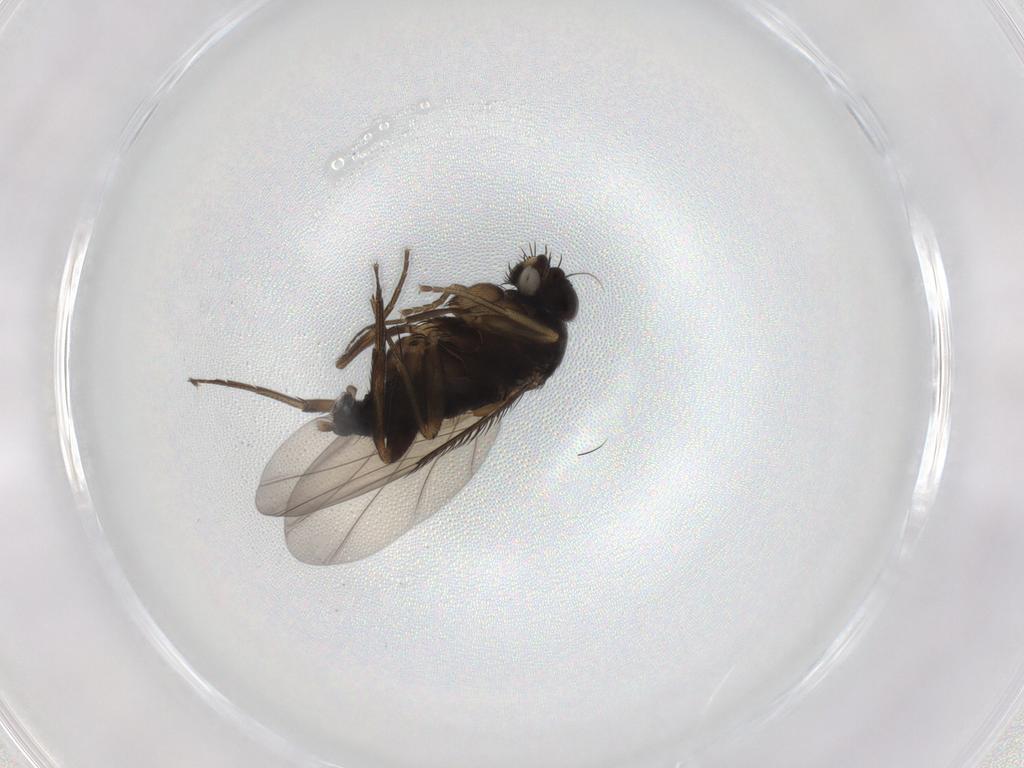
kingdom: Animalia
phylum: Arthropoda
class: Insecta
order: Diptera
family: Phoridae
